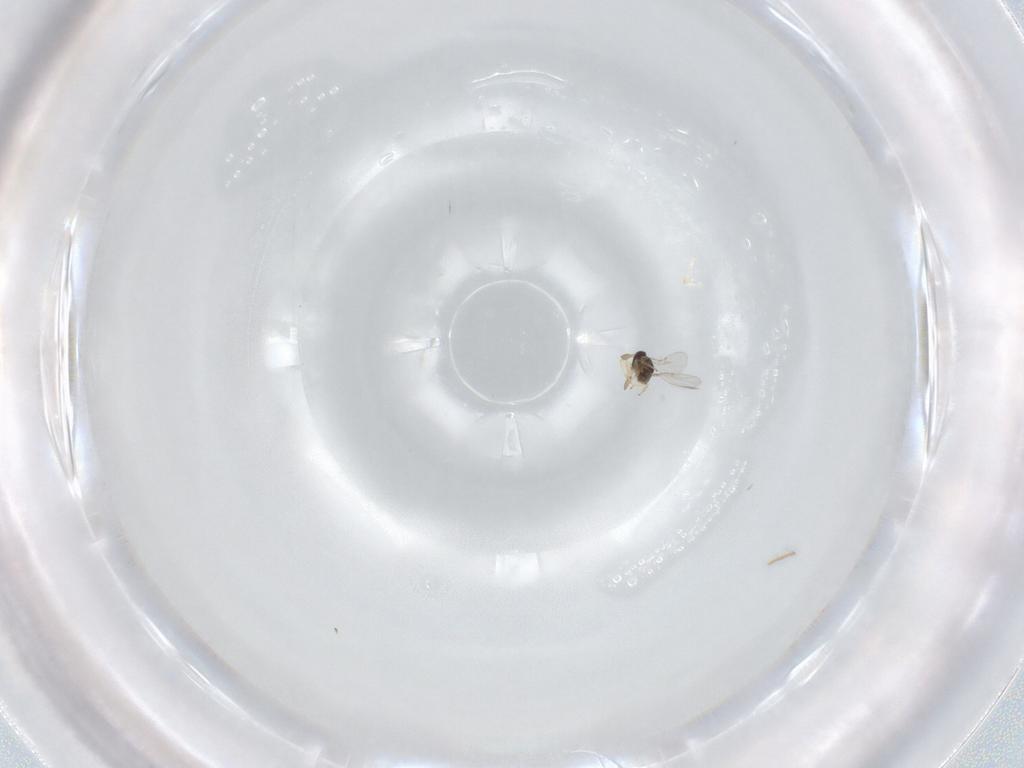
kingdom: Animalia
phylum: Arthropoda
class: Insecta
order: Hymenoptera
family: Encyrtidae
